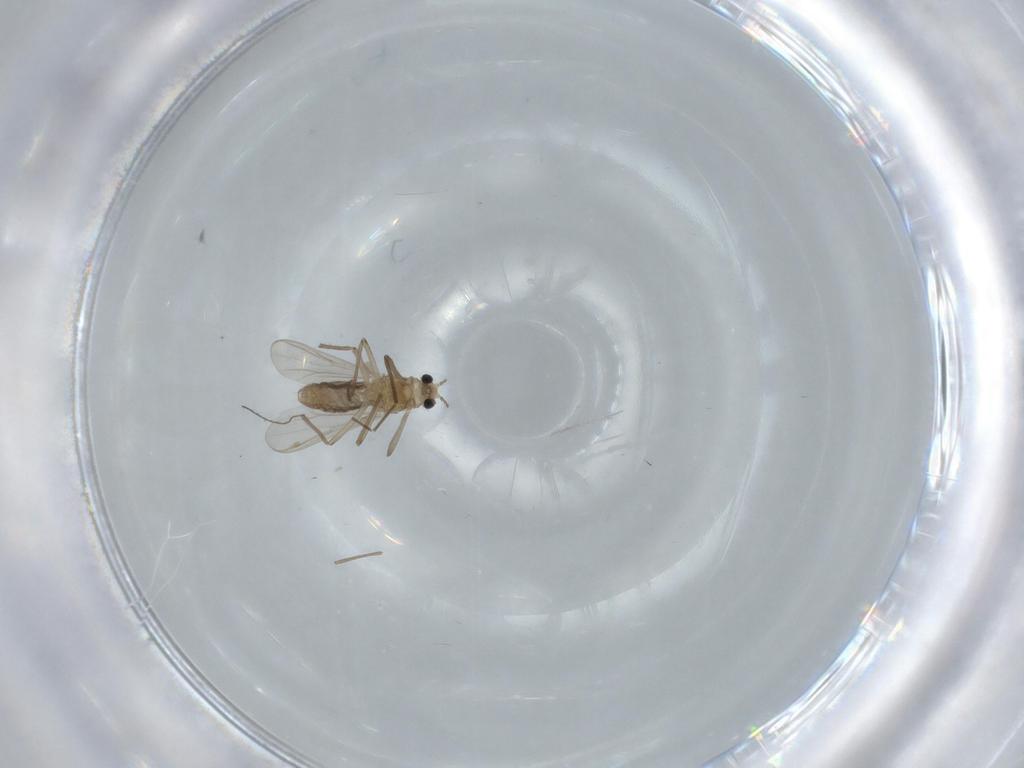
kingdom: Animalia
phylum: Arthropoda
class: Insecta
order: Diptera
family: Chironomidae
